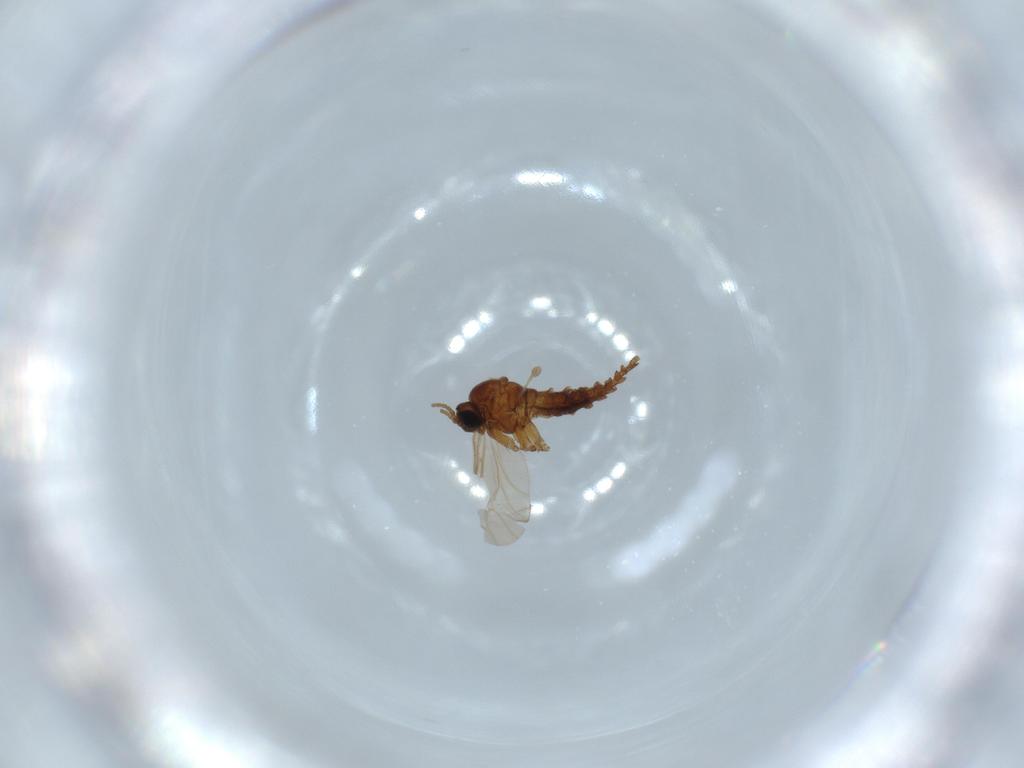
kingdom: Animalia
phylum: Arthropoda
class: Insecta
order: Diptera
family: Sciaridae
